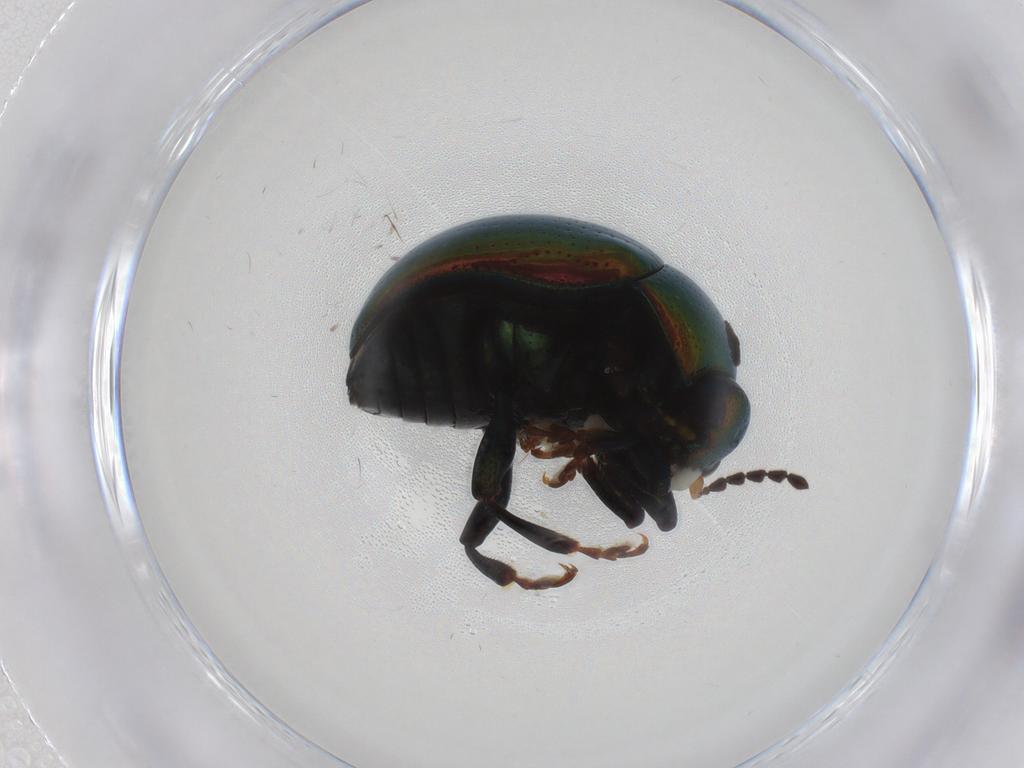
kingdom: Animalia
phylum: Arthropoda
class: Insecta
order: Coleoptera
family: Chrysomelidae
